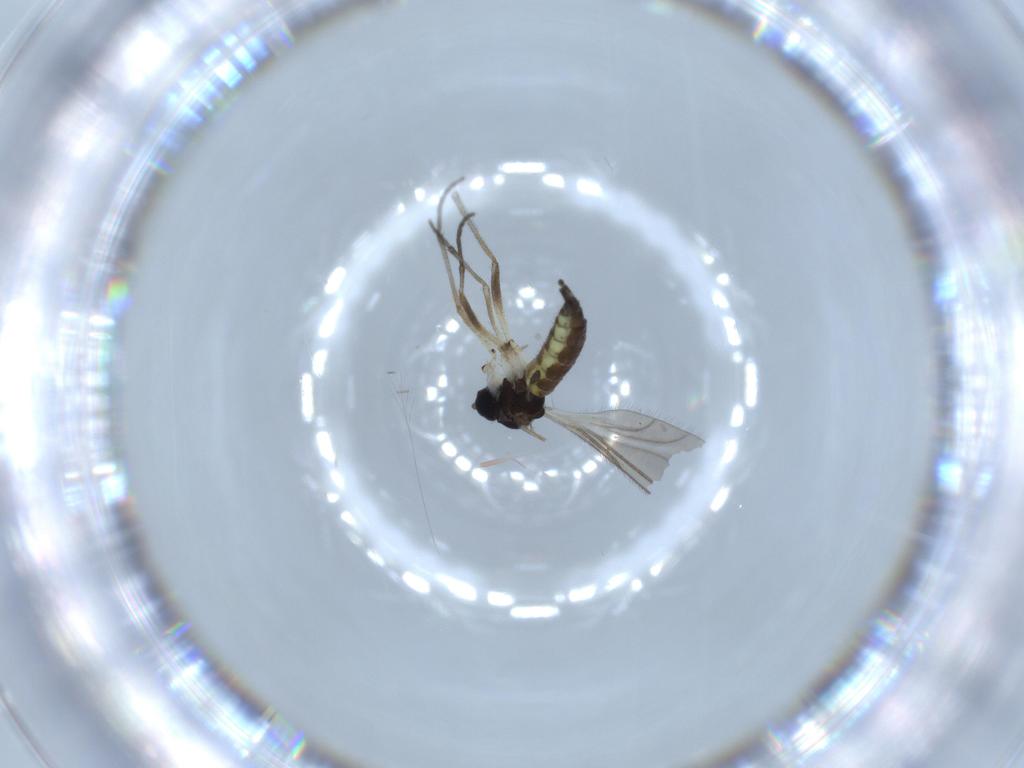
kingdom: Animalia
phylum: Arthropoda
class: Insecta
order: Diptera
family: Sciaridae
